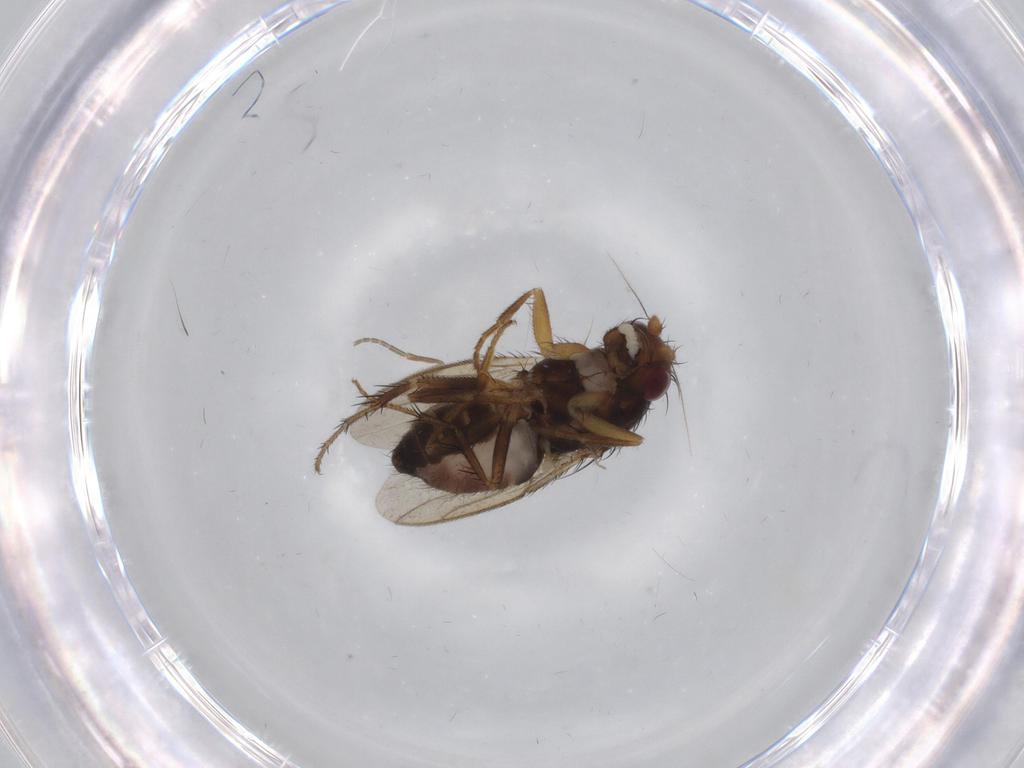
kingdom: Animalia
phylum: Arthropoda
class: Insecta
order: Diptera
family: Sphaeroceridae
